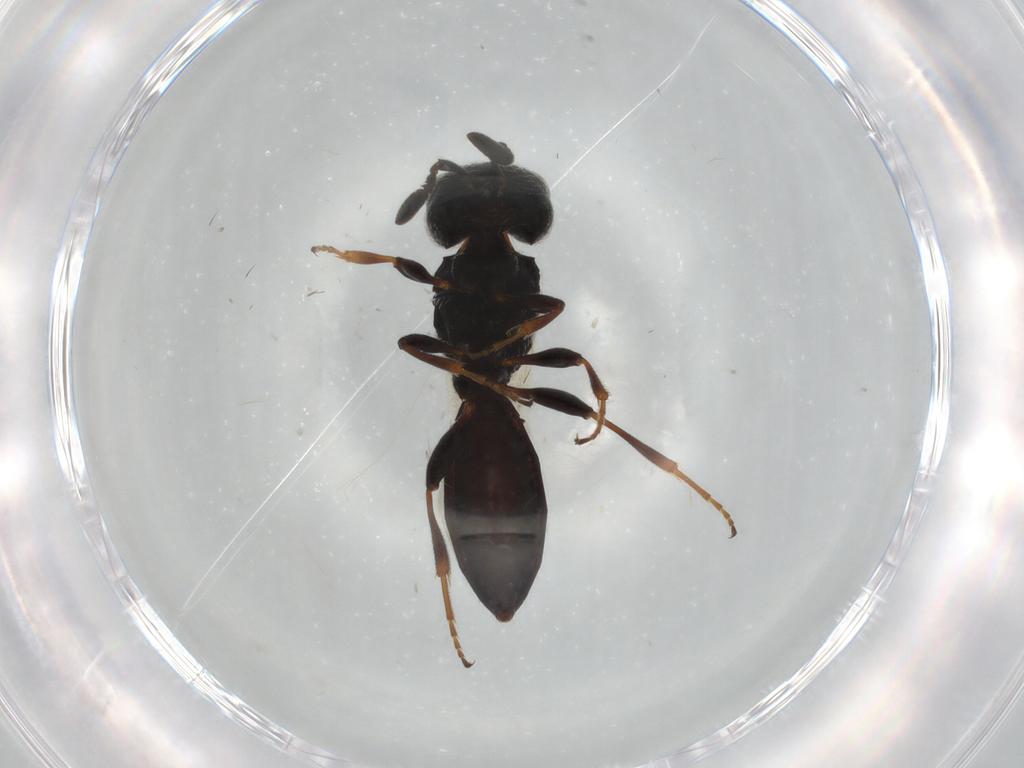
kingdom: Animalia
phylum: Arthropoda
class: Insecta
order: Hymenoptera
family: Scelionidae
